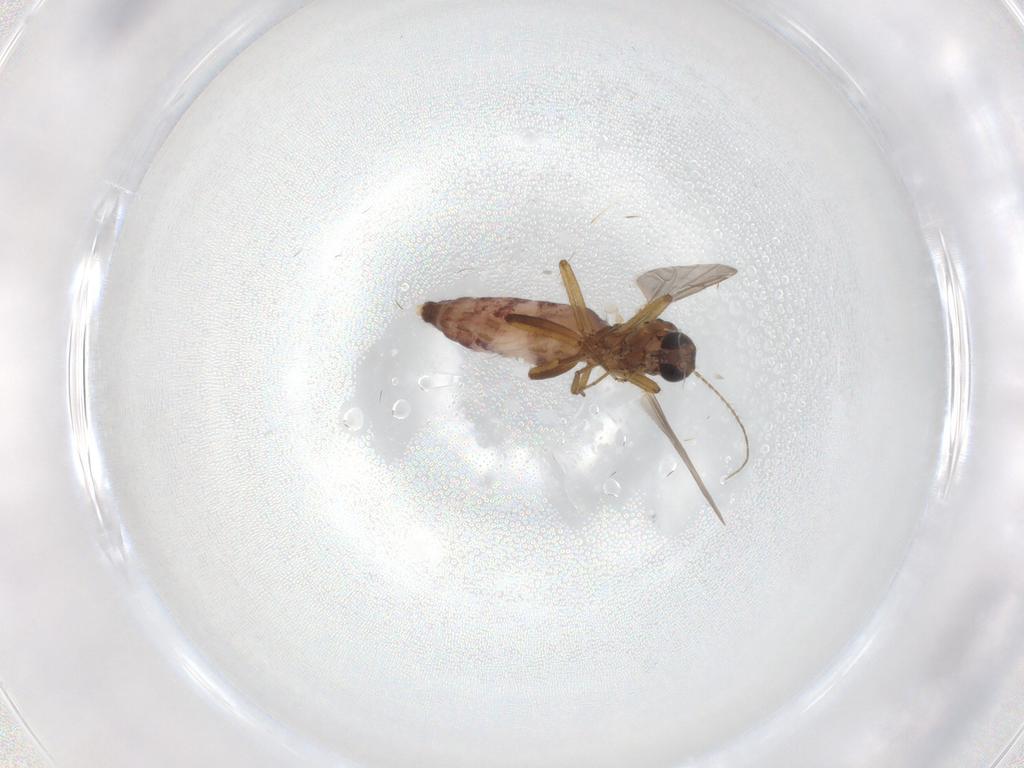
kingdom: Animalia
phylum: Arthropoda
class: Insecta
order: Diptera
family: Ceratopogonidae
